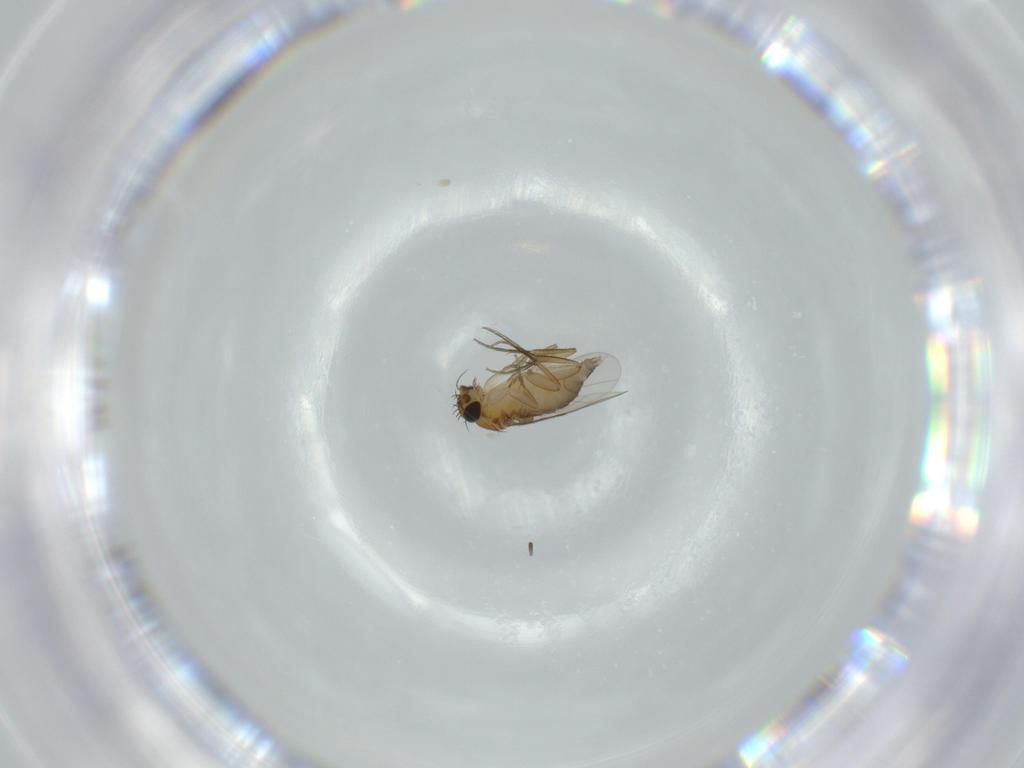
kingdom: Animalia
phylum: Arthropoda
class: Insecta
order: Diptera
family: Phoridae
